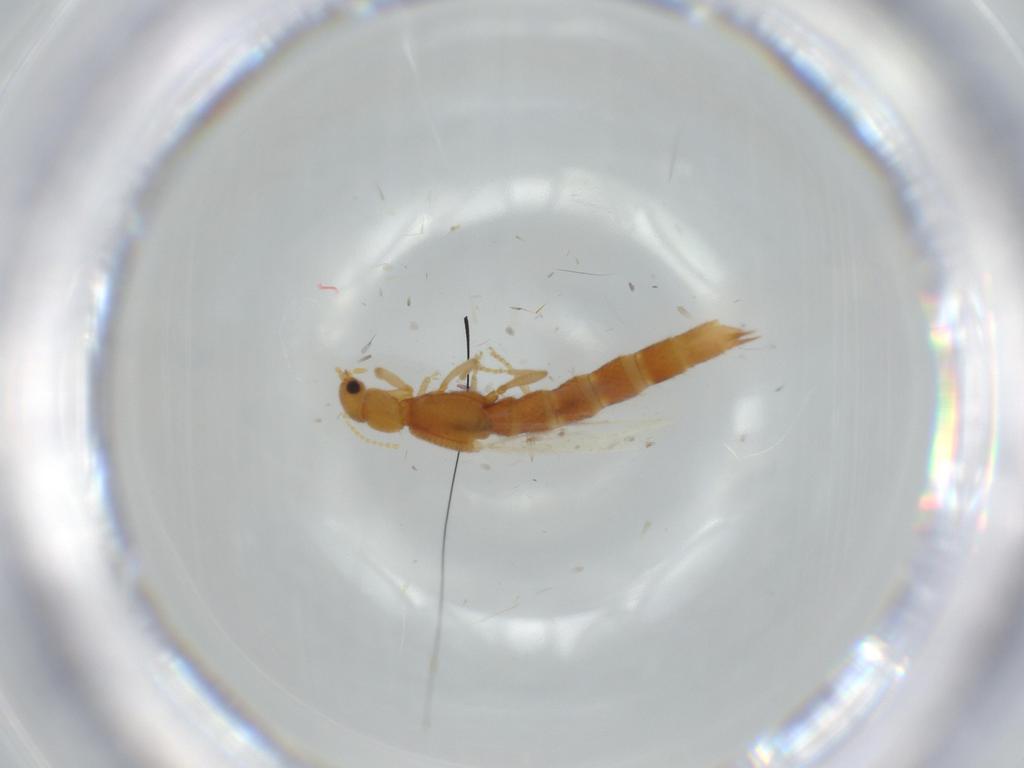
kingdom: Animalia
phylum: Arthropoda
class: Insecta
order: Coleoptera
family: Staphylinidae
